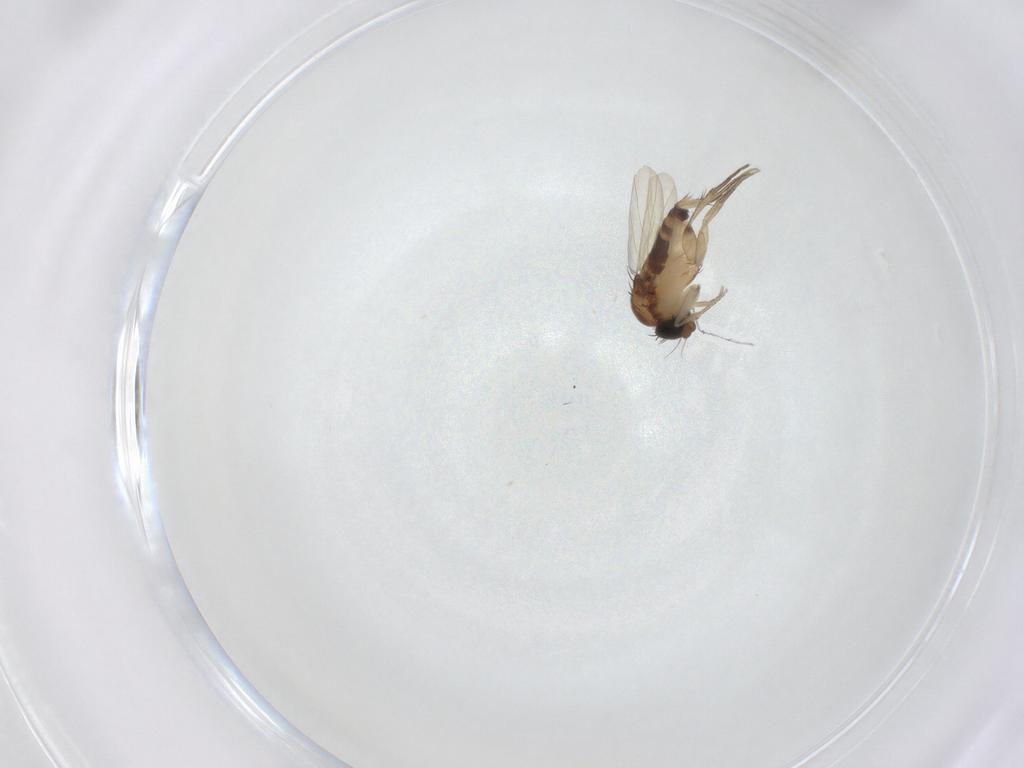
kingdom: Animalia
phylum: Arthropoda
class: Insecta
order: Diptera
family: Phoridae
